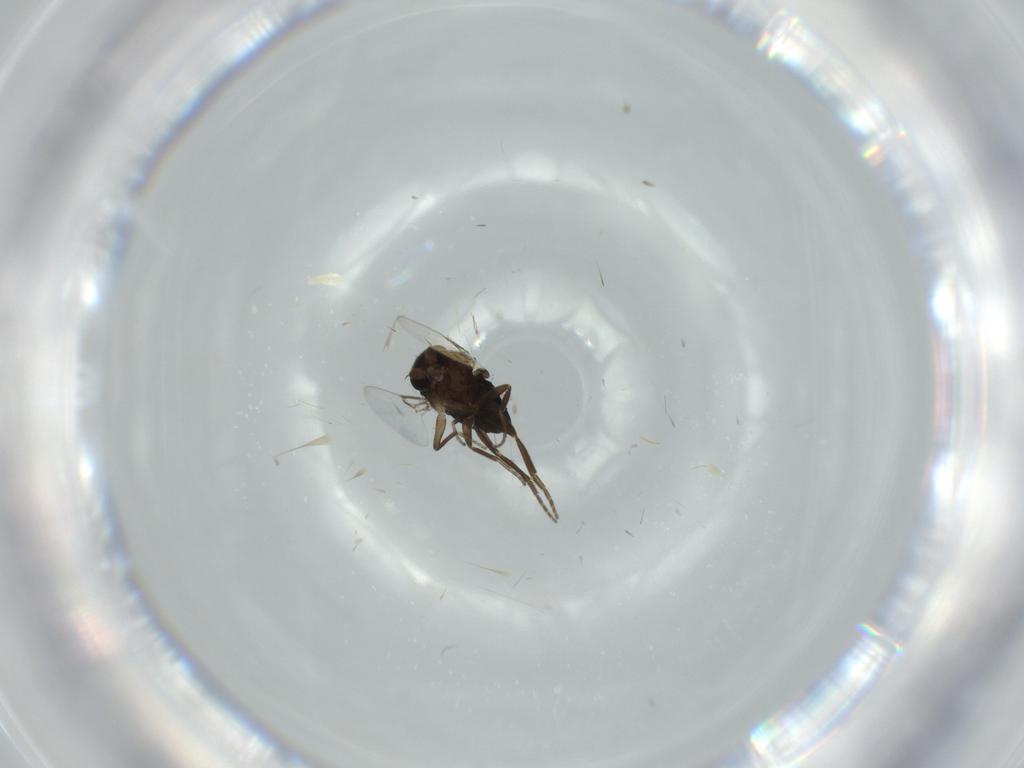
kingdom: Animalia
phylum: Arthropoda
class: Insecta
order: Diptera
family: Phoridae
